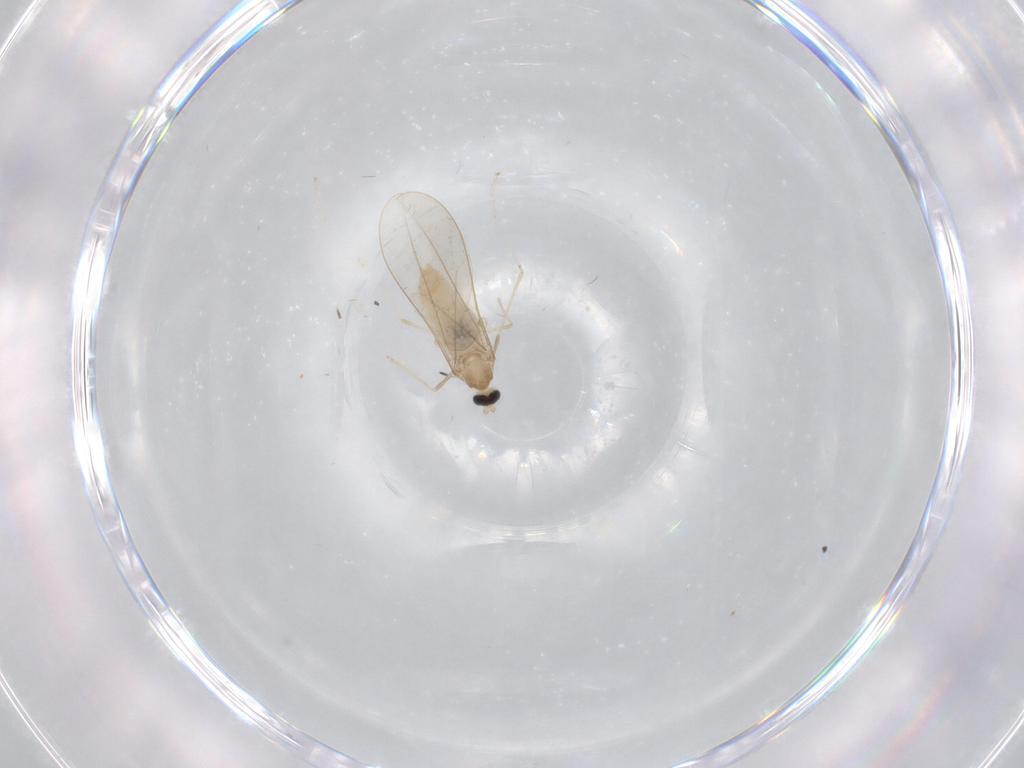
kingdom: Animalia
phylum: Arthropoda
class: Insecta
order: Diptera
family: Cecidomyiidae
